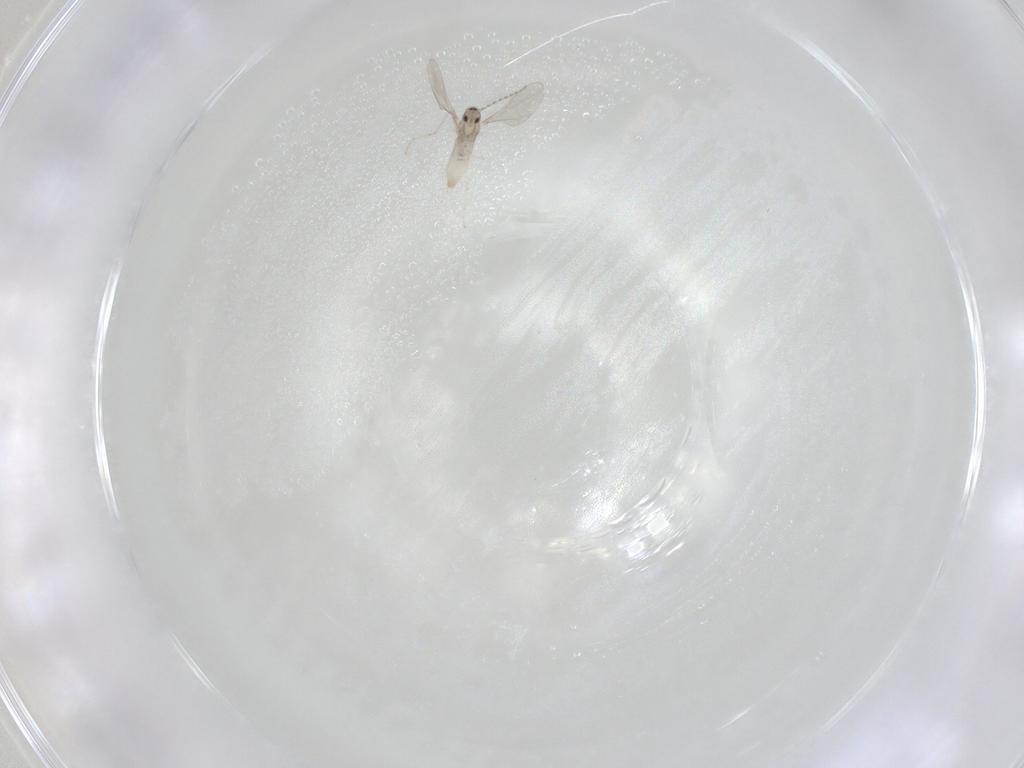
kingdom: Animalia
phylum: Arthropoda
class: Insecta
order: Diptera
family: Cecidomyiidae
